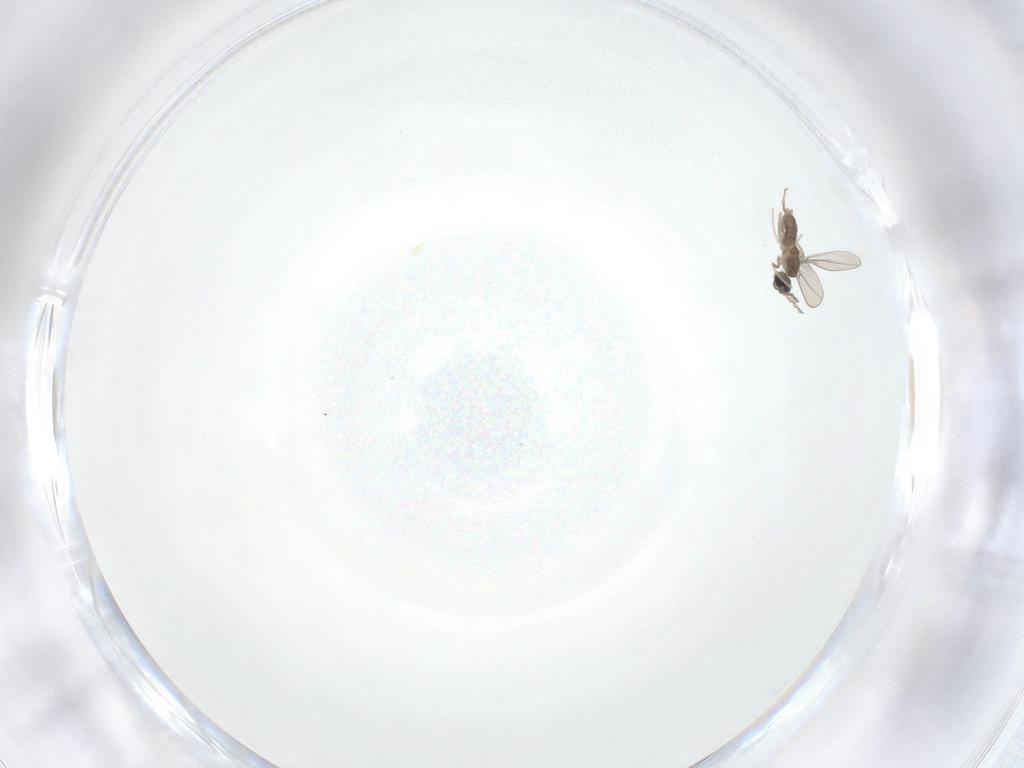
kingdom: Animalia
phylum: Arthropoda
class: Insecta
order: Diptera
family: Cecidomyiidae
